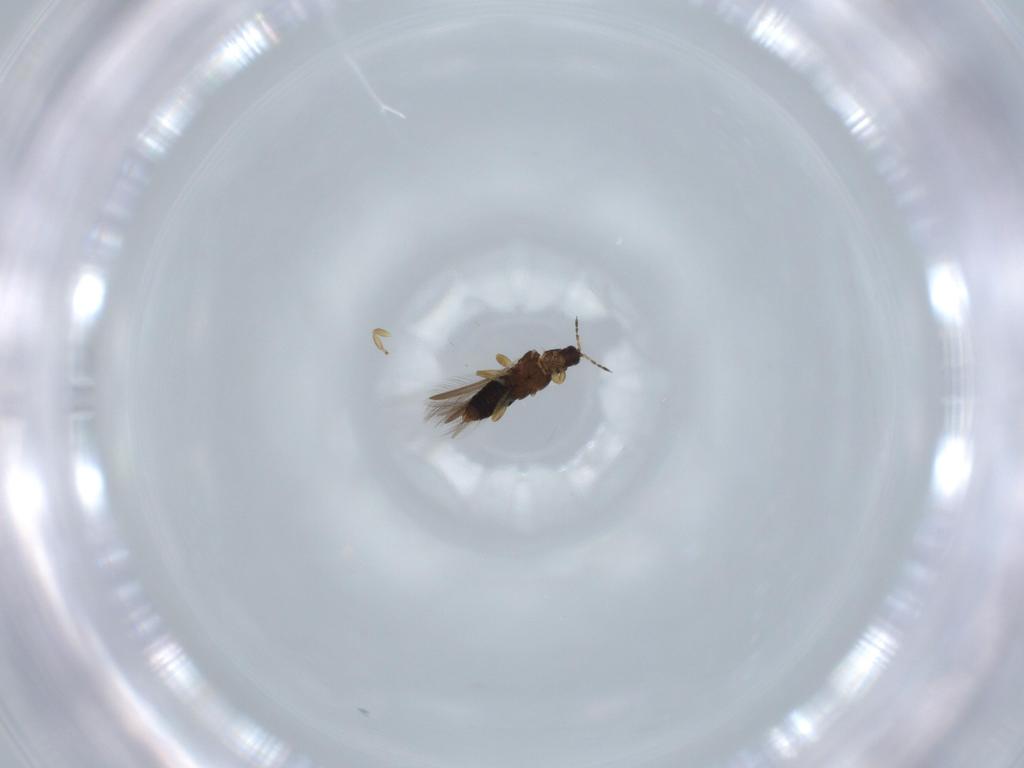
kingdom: Animalia
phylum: Arthropoda
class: Insecta
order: Thysanoptera
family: Thripidae
